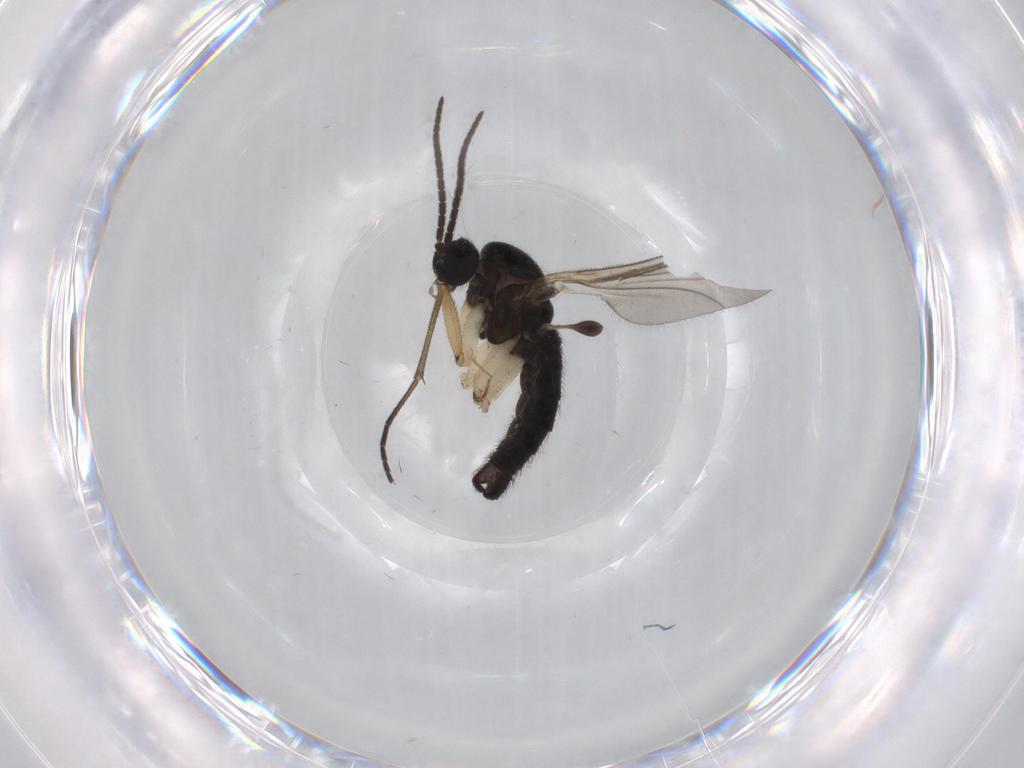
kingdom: Animalia
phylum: Arthropoda
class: Insecta
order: Diptera
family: Sciaridae
